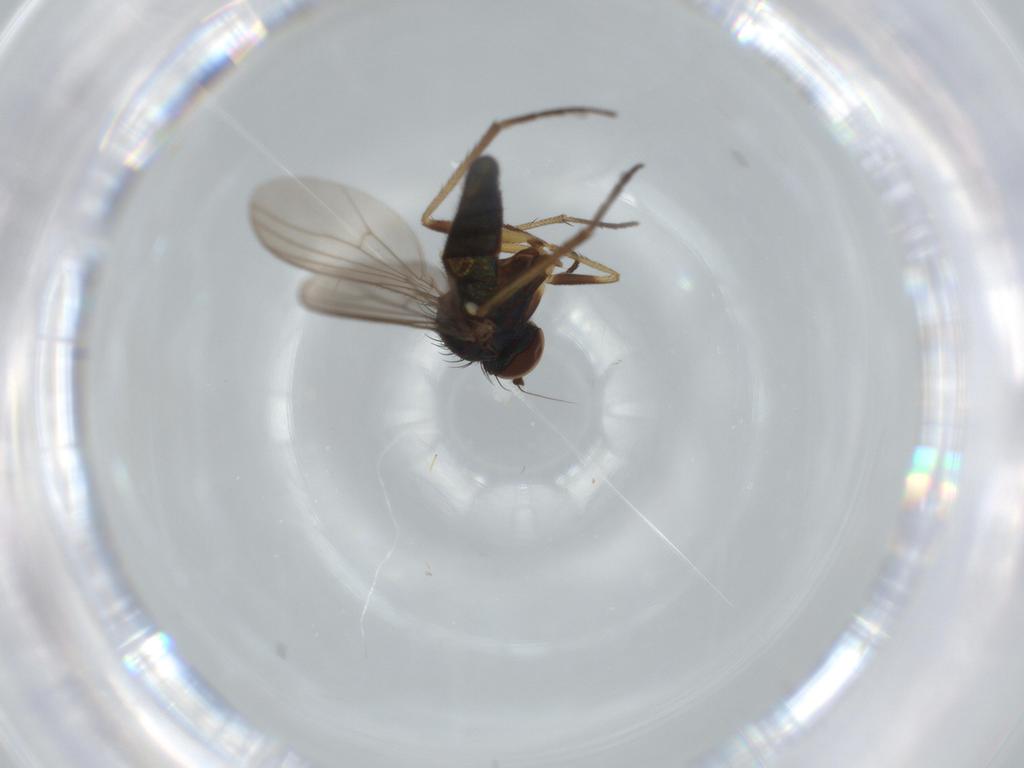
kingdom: Animalia
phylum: Arthropoda
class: Insecta
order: Diptera
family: Dolichopodidae
